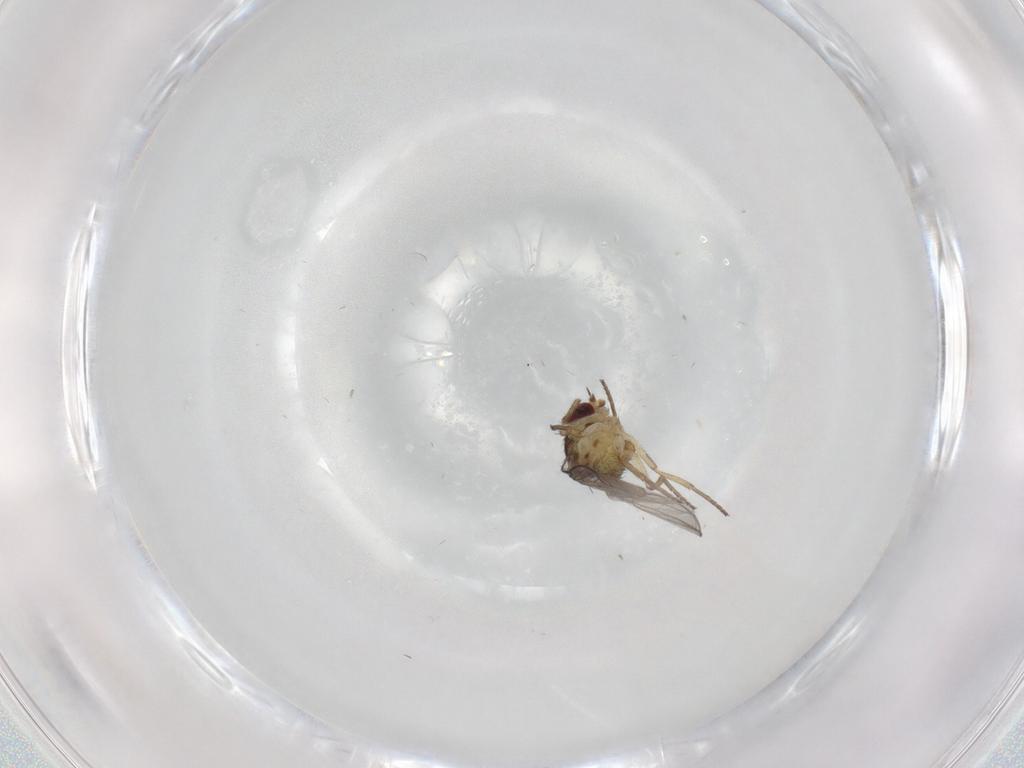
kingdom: Animalia
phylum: Arthropoda
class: Insecta
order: Diptera
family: Agromyzidae
